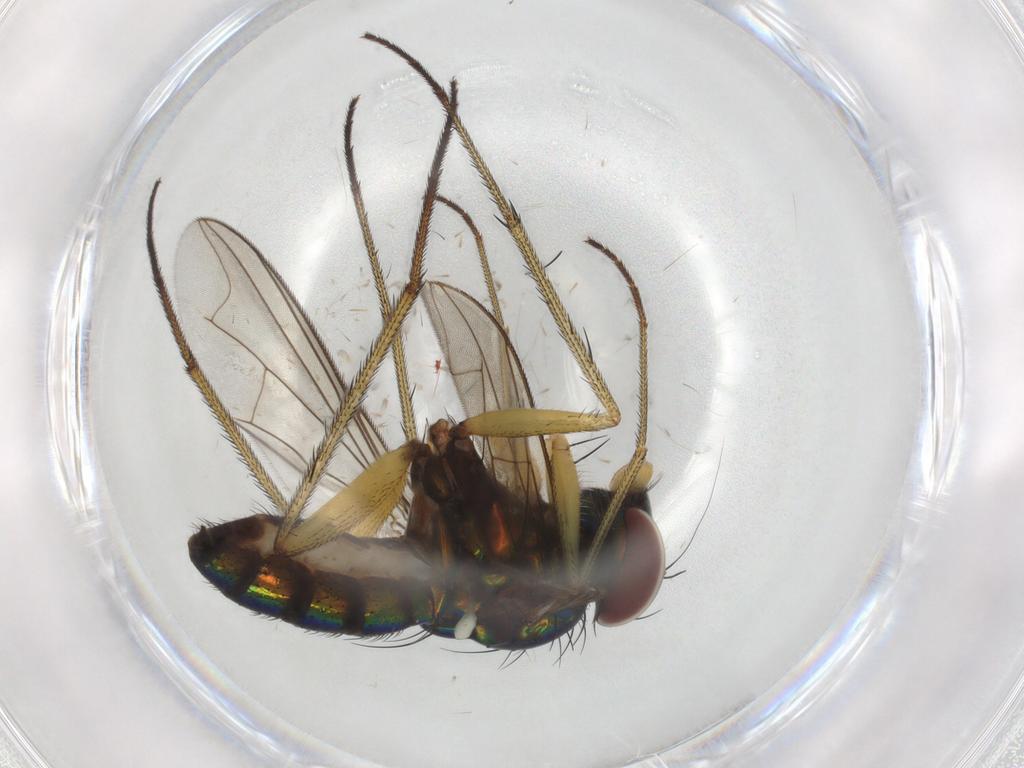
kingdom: Animalia
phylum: Arthropoda
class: Insecta
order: Diptera
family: Dolichopodidae
